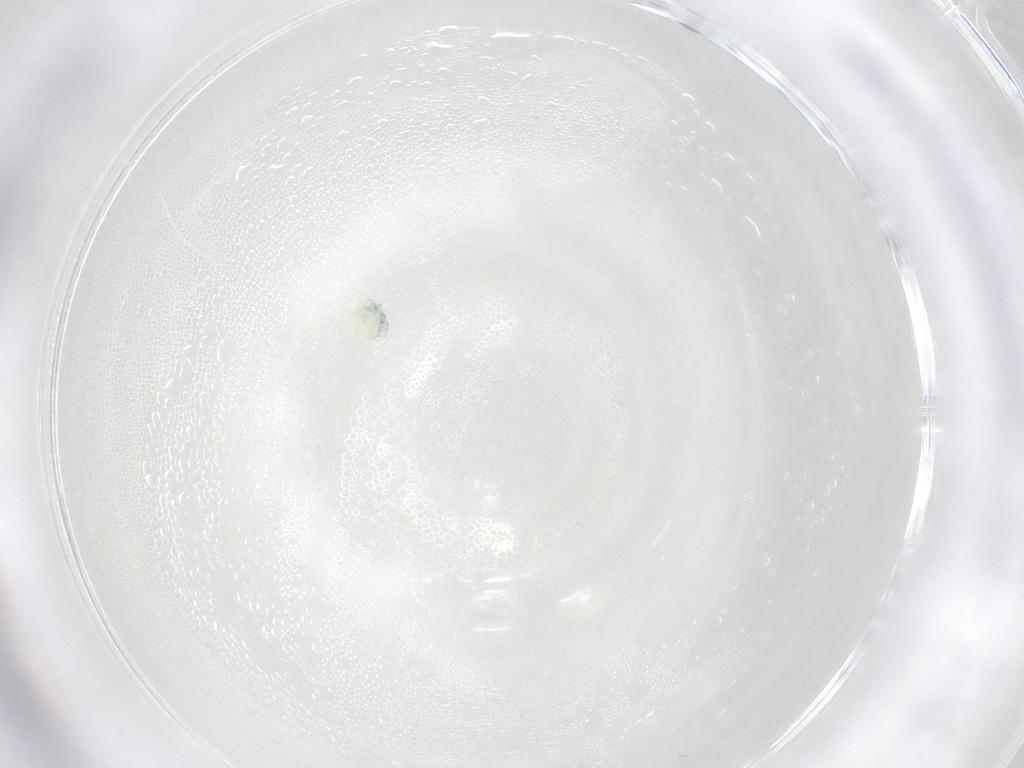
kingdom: Animalia
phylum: Arthropoda
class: Arachnida
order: Trombidiformes
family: Arrenuridae
